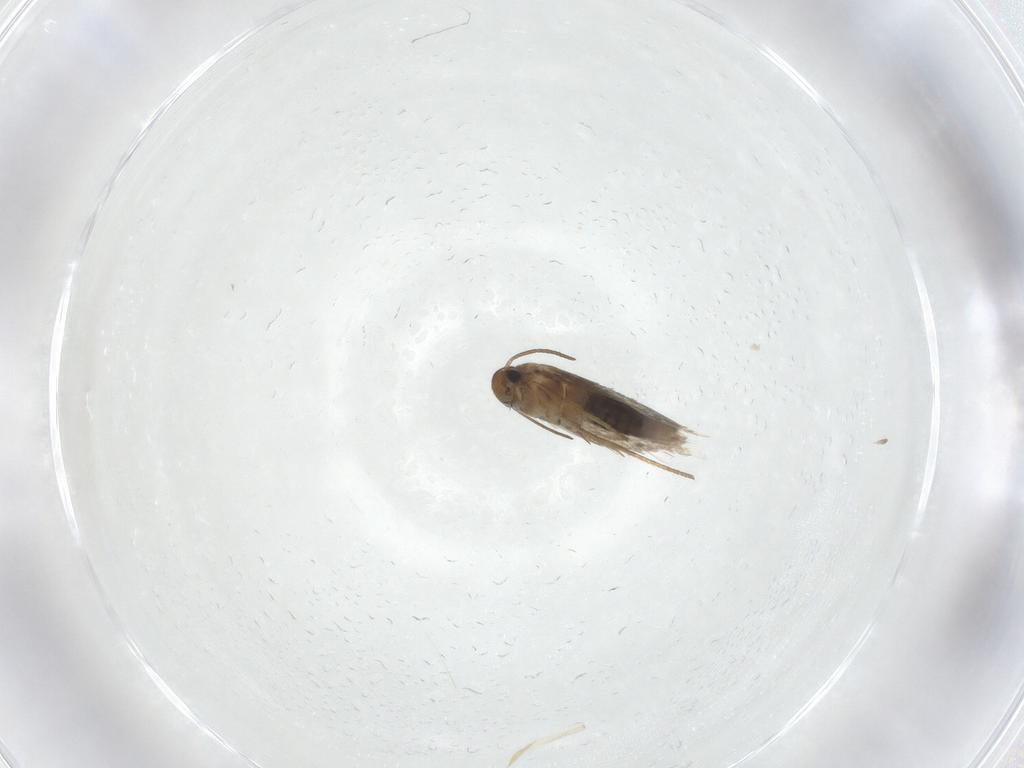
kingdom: Animalia
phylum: Arthropoda
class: Insecta
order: Lepidoptera
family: Heliozelidae
